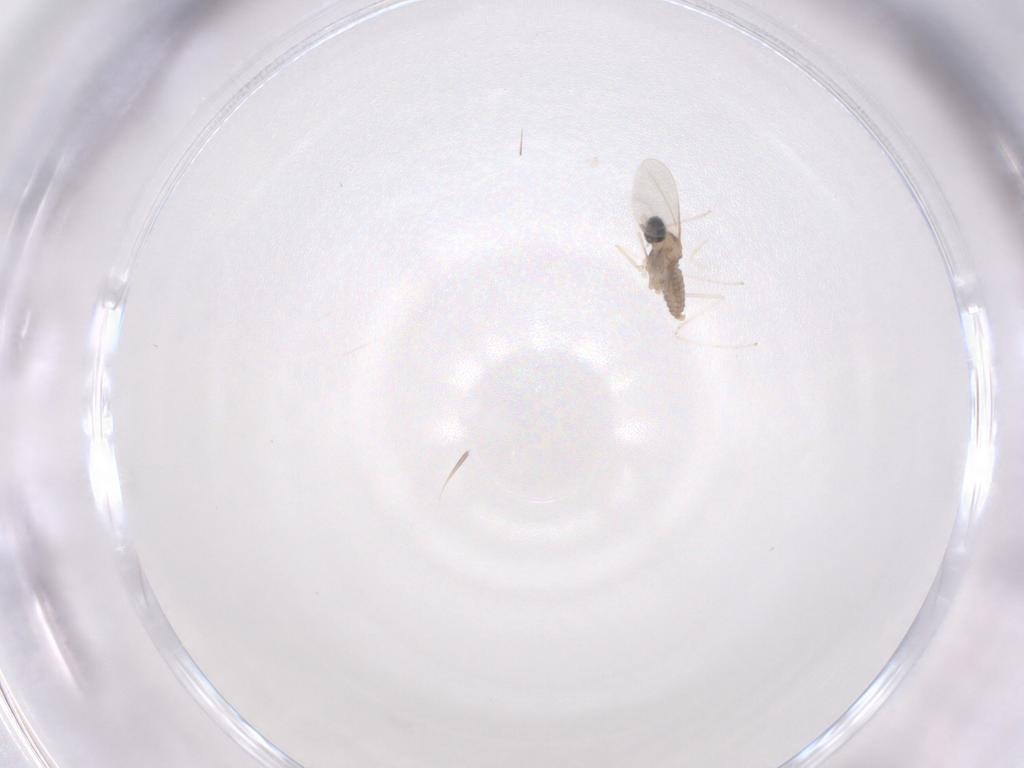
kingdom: Animalia
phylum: Arthropoda
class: Insecta
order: Diptera
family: Cecidomyiidae
